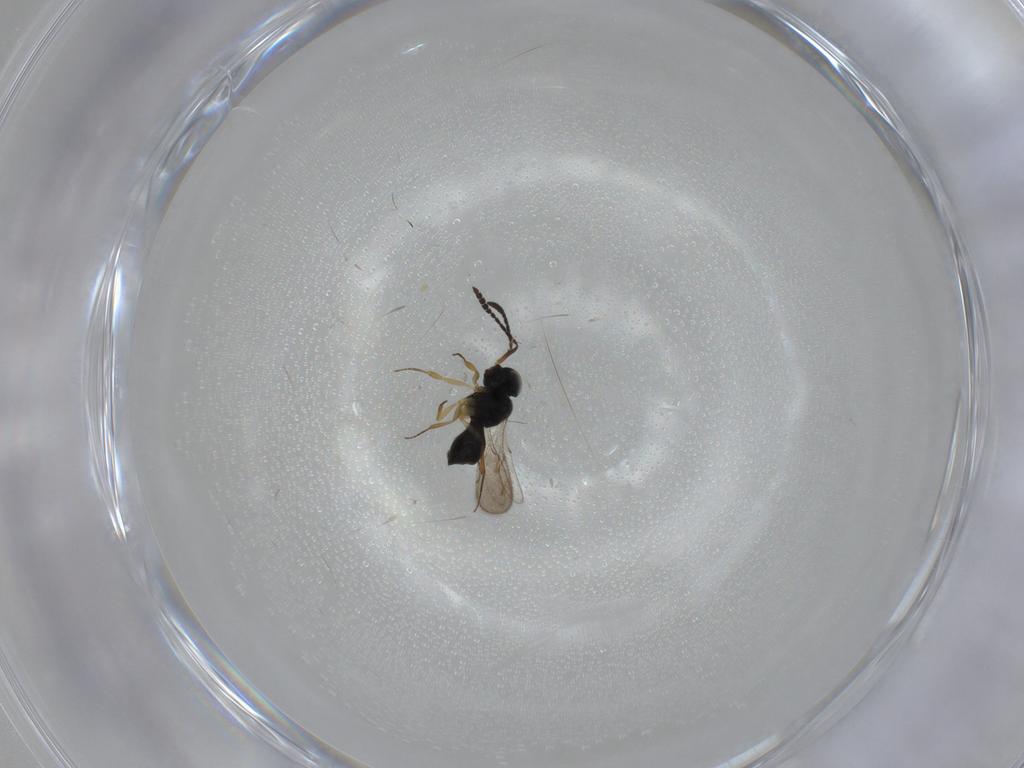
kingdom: Animalia
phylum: Arthropoda
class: Insecta
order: Hymenoptera
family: Scelionidae
